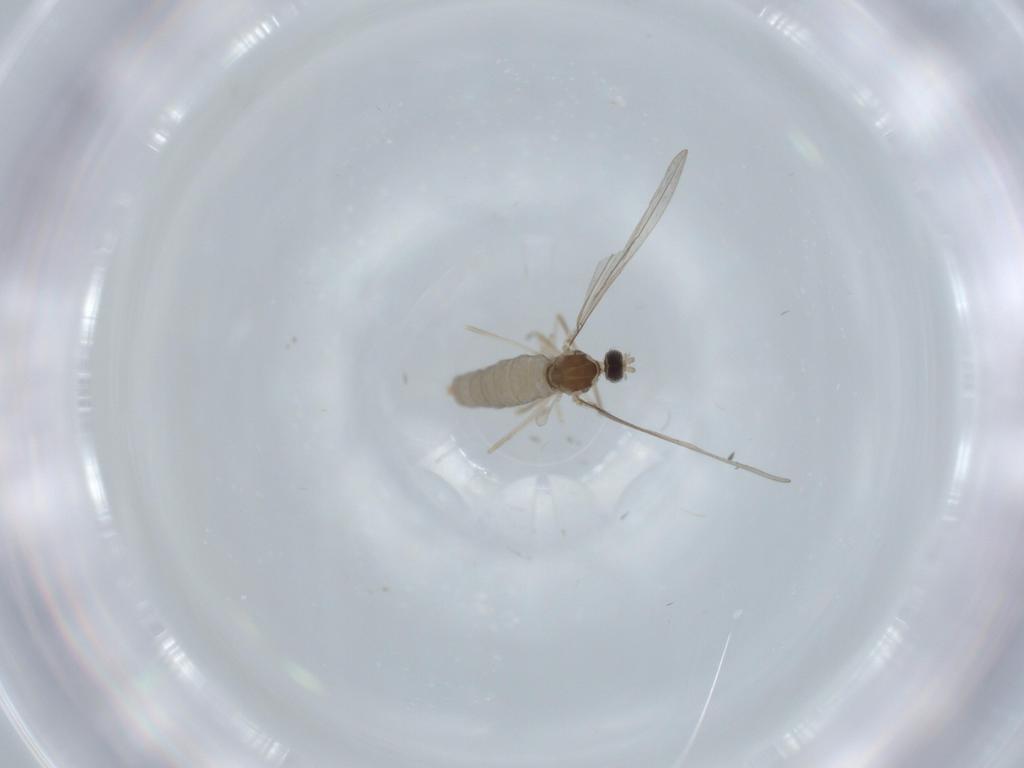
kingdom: Animalia
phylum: Arthropoda
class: Insecta
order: Diptera
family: Cecidomyiidae
